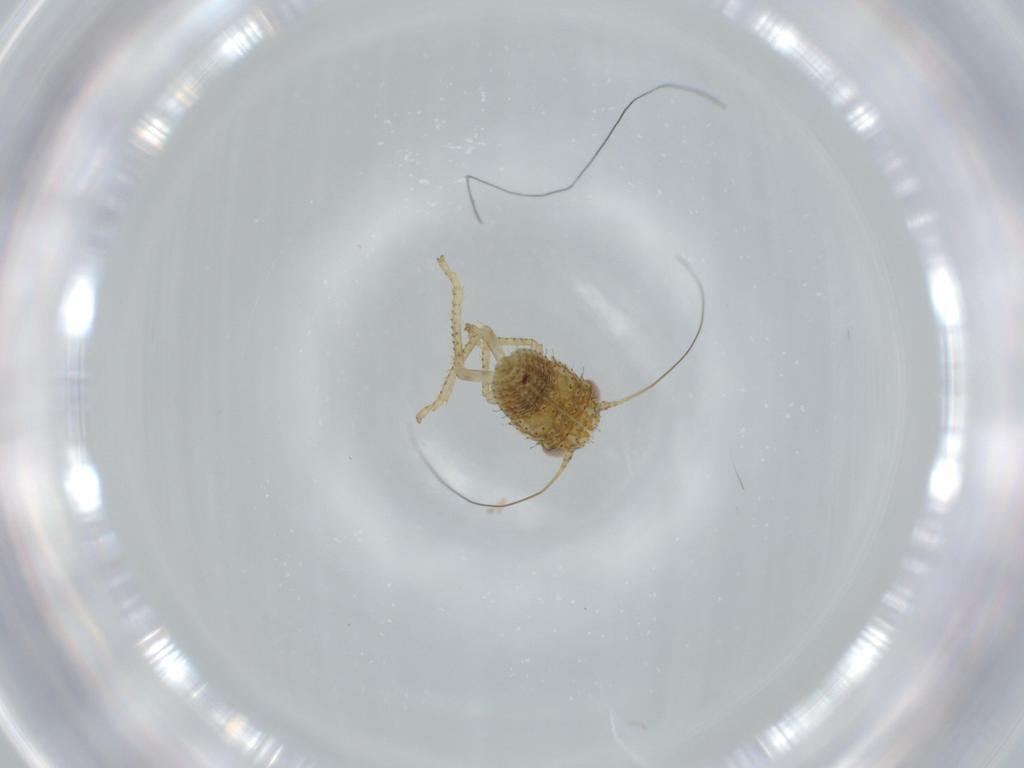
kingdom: Animalia
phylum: Arthropoda
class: Insecta
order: Hemiptera
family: Cicadellidae
